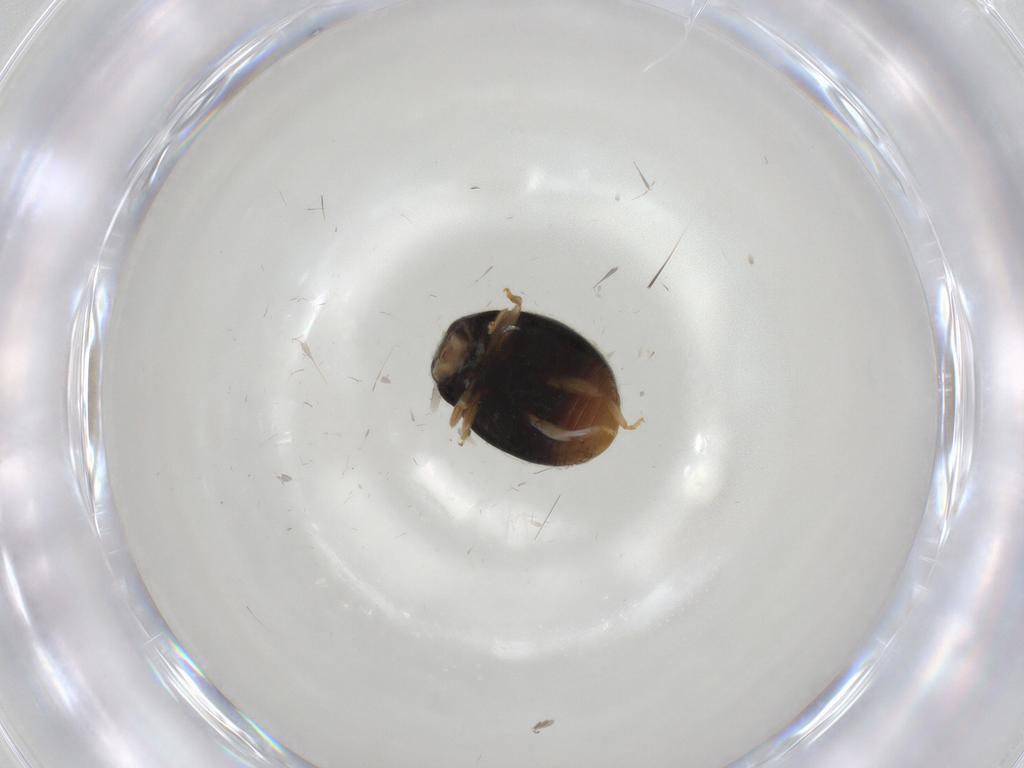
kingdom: Animalia
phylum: Arthropoda
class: Insecta
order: Coleoptera
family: Coccinellidae
